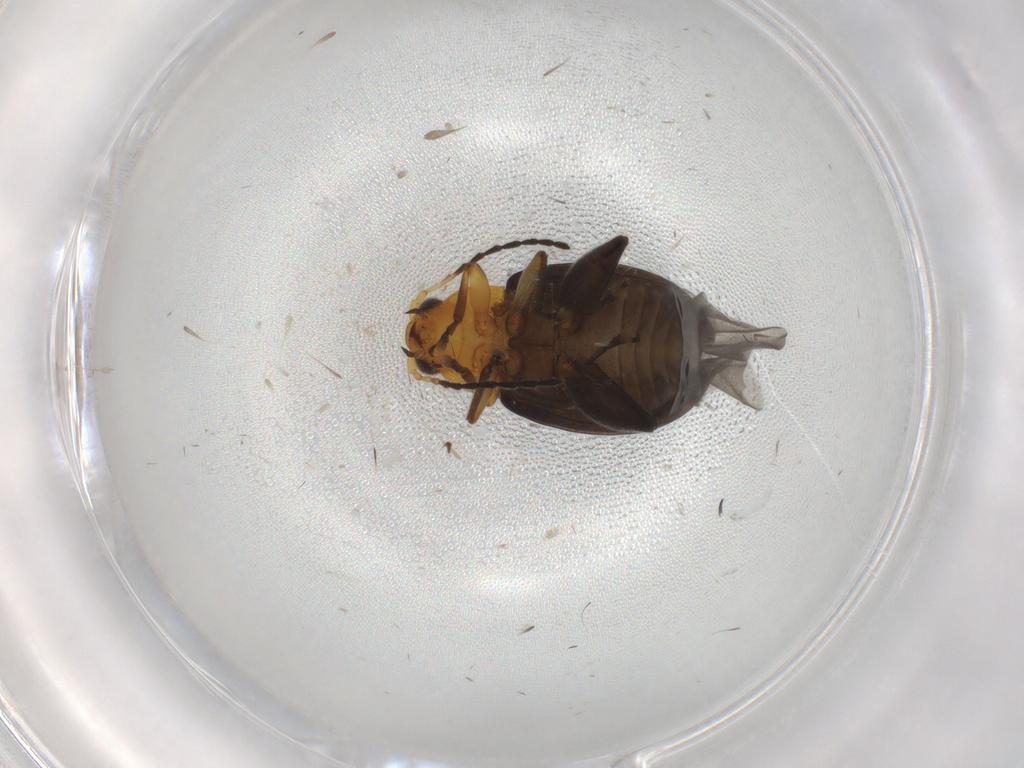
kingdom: Animalia
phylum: Arthropoda
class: Insecta
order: Coleoptera
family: Chrysomelidae
